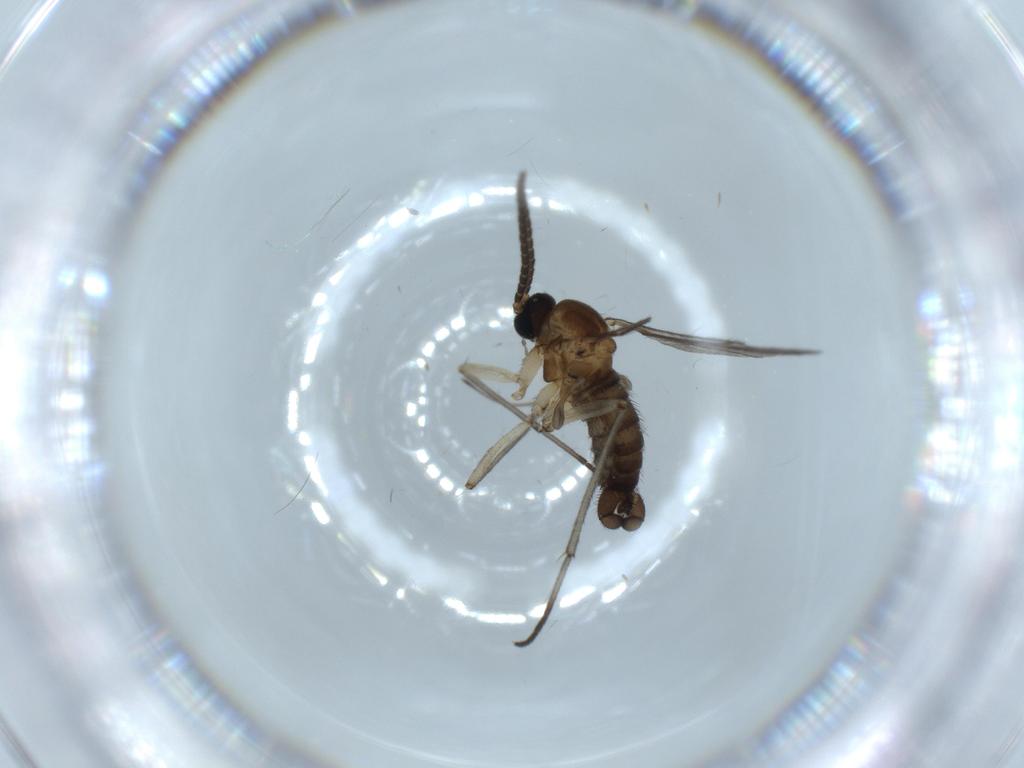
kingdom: Animalia
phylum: Arthropoda
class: Insecta
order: Diptera
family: Sciaridae
